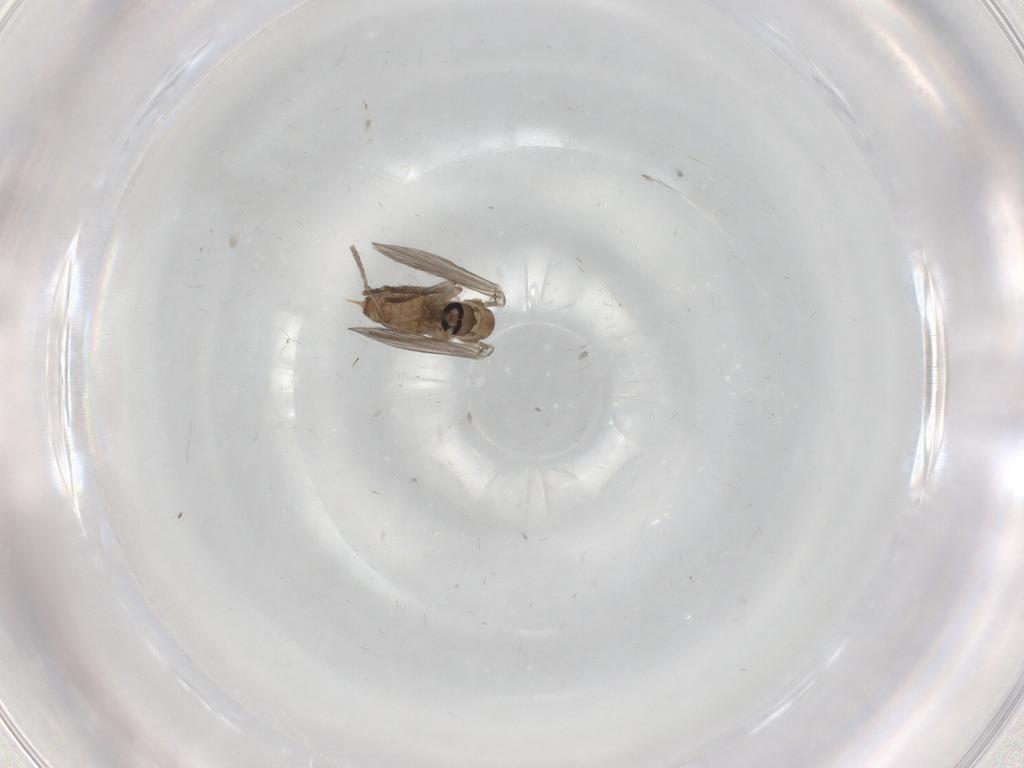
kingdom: Animalia
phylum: Arthropoda
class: Insecta
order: Diptera
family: Psychodidae
